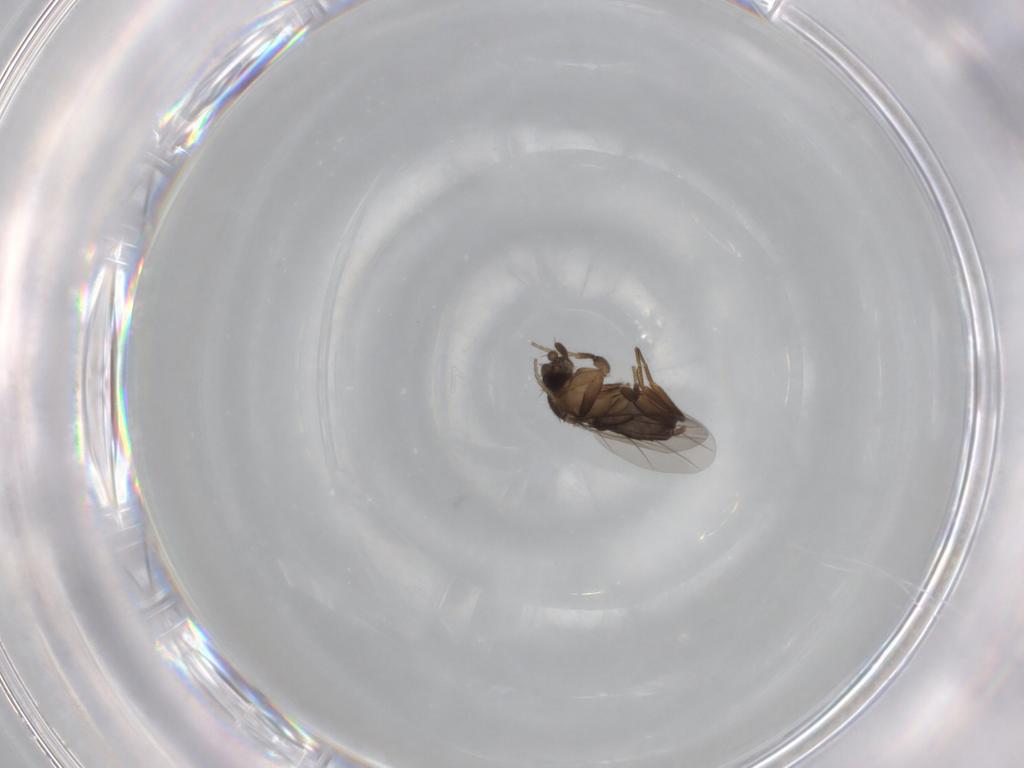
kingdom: Animalia
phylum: Arthropoda
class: Insecta
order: Diptera
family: Phoridae
